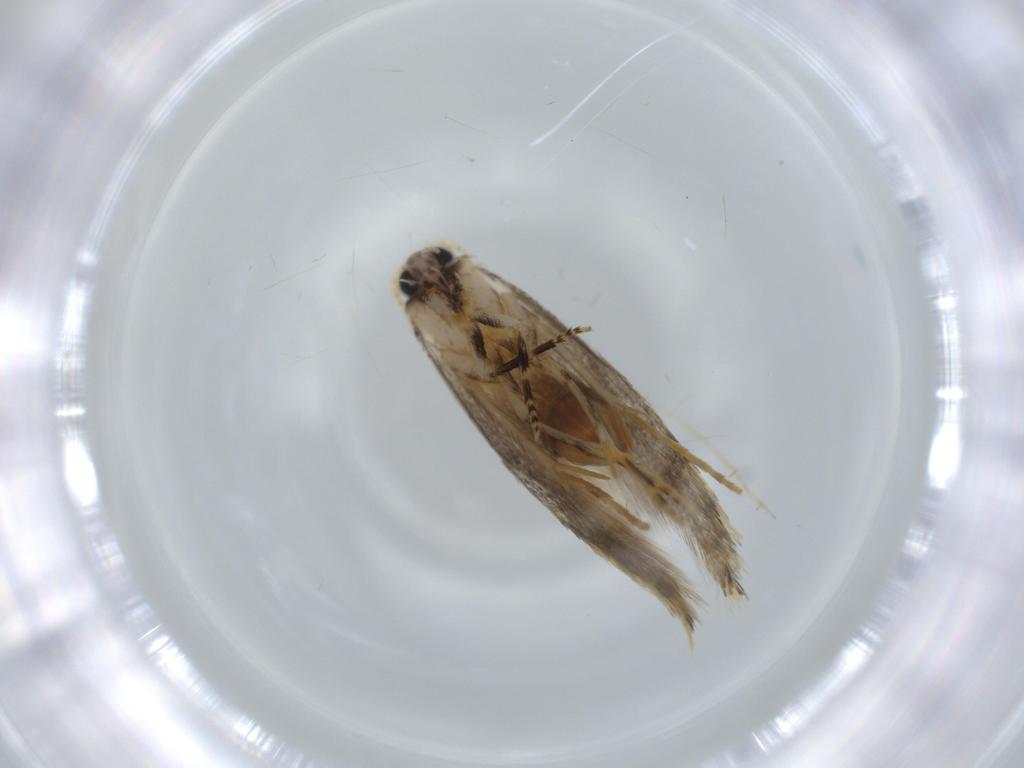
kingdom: Animalia
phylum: Arthropoda
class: Insecta
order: Lepidoptera
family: Tineidae
